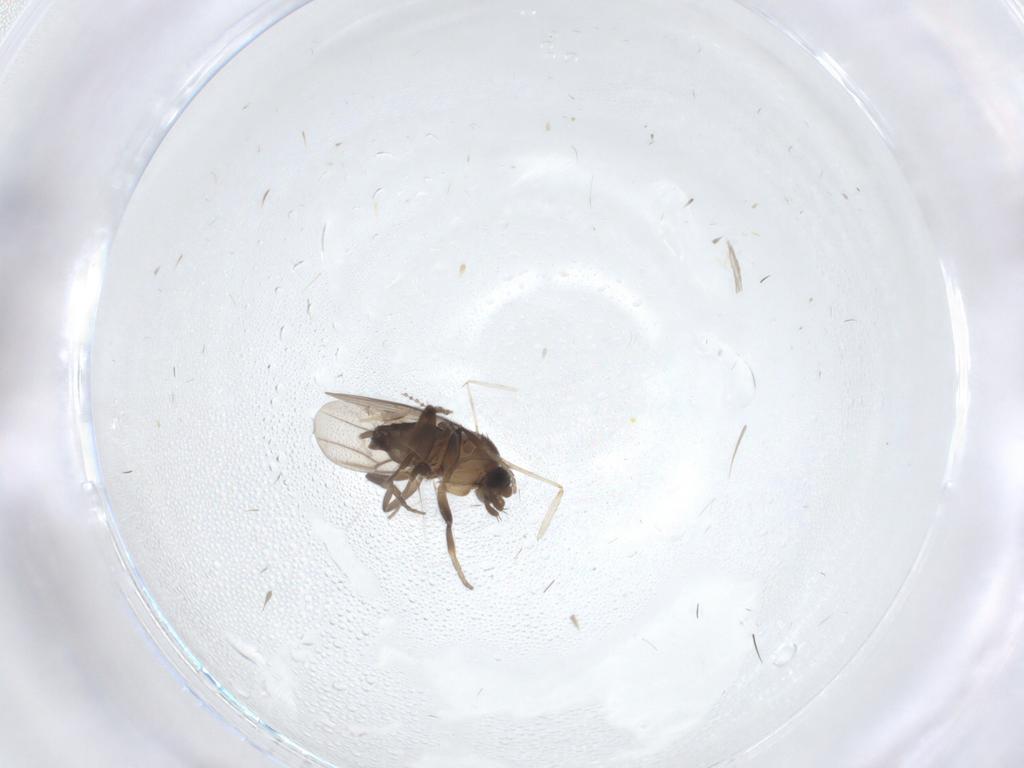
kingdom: Animalia
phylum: Arthropoda
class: Insecta
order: Diptera
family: Phoridae
